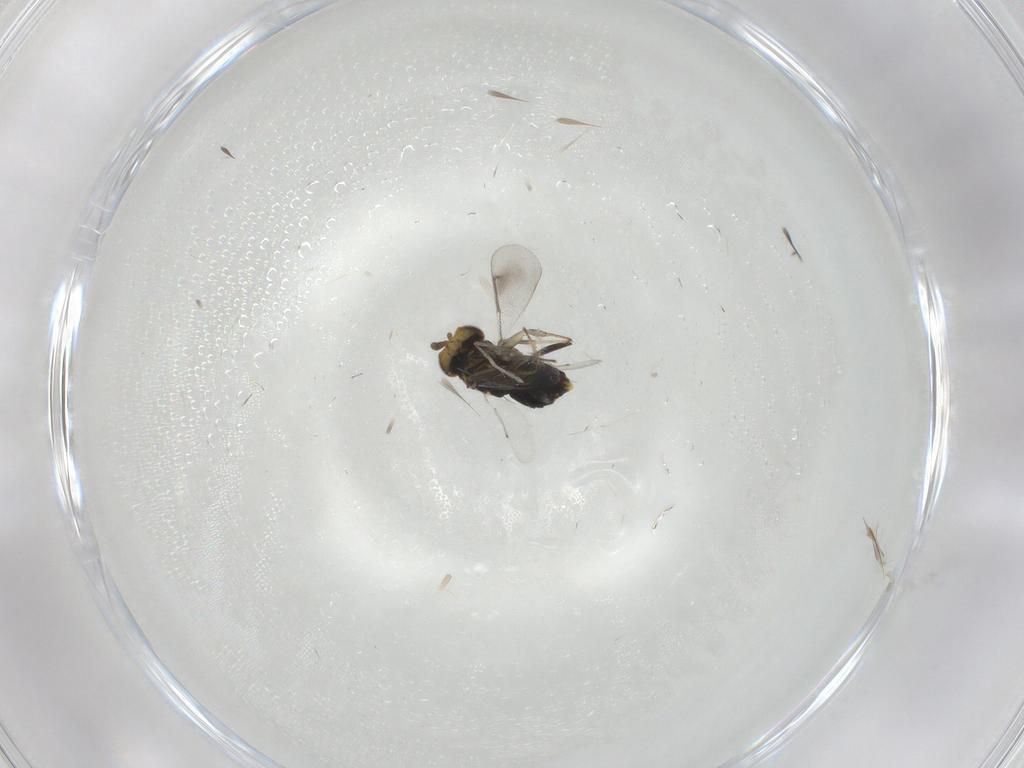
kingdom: Animalia
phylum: Arthropoda
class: Insecta
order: Hymenoptera
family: Aphelinidae
